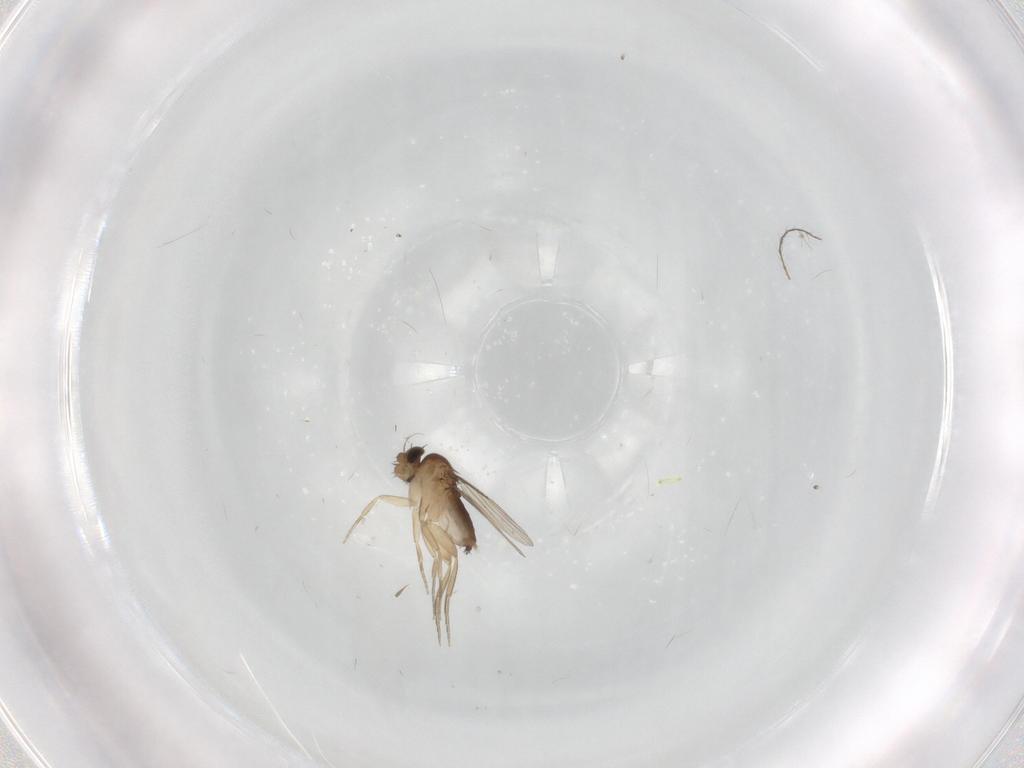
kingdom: Animalia
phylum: Arthropoda
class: Insecta
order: Diptera
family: Phoridae
